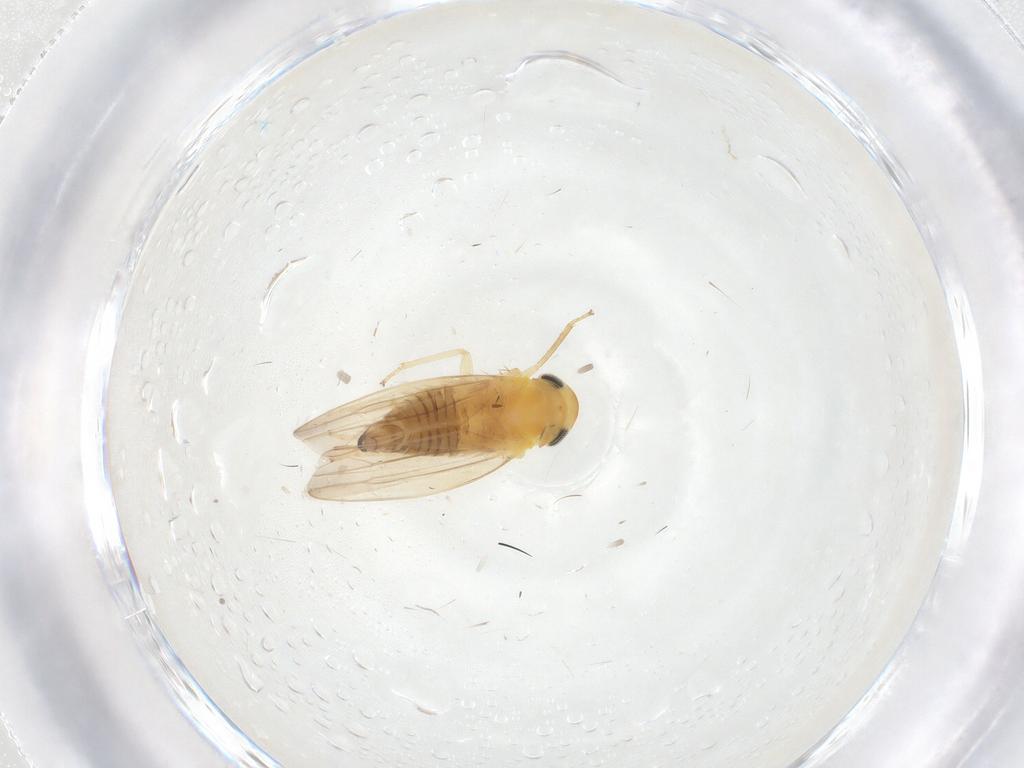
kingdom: Animalia
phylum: Arthropoda
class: Insecta
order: Hemiptera
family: Cicadellidae
